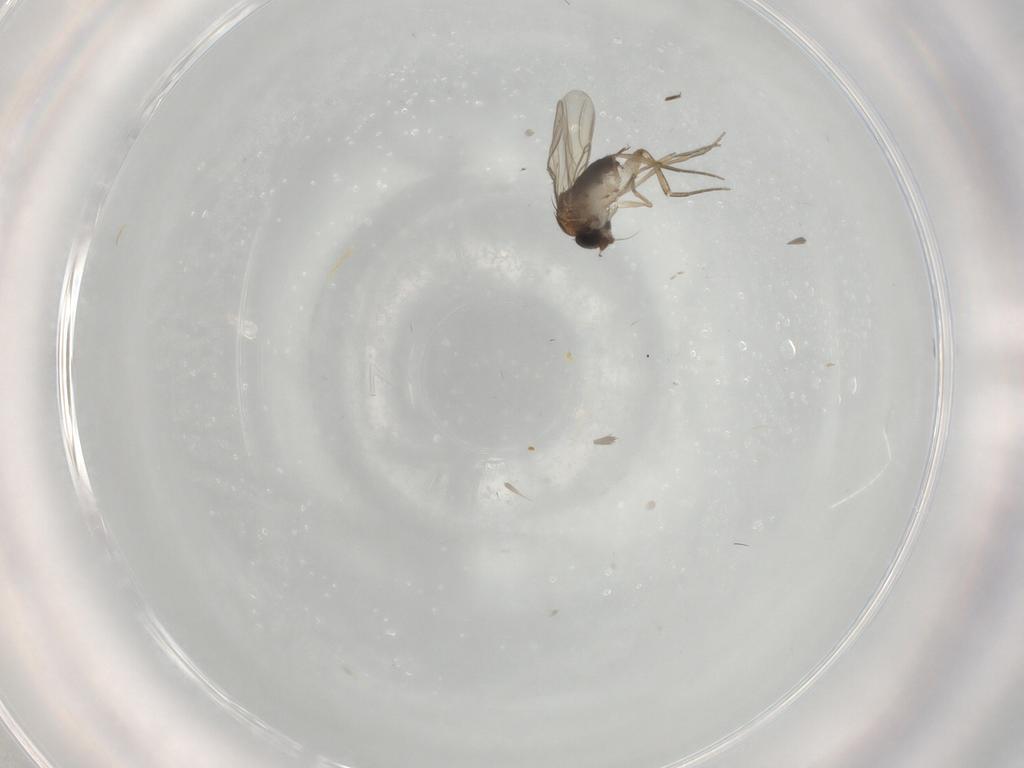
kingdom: Animalia
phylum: Arthropoda
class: Insecta
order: Diptera
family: Phoridae
